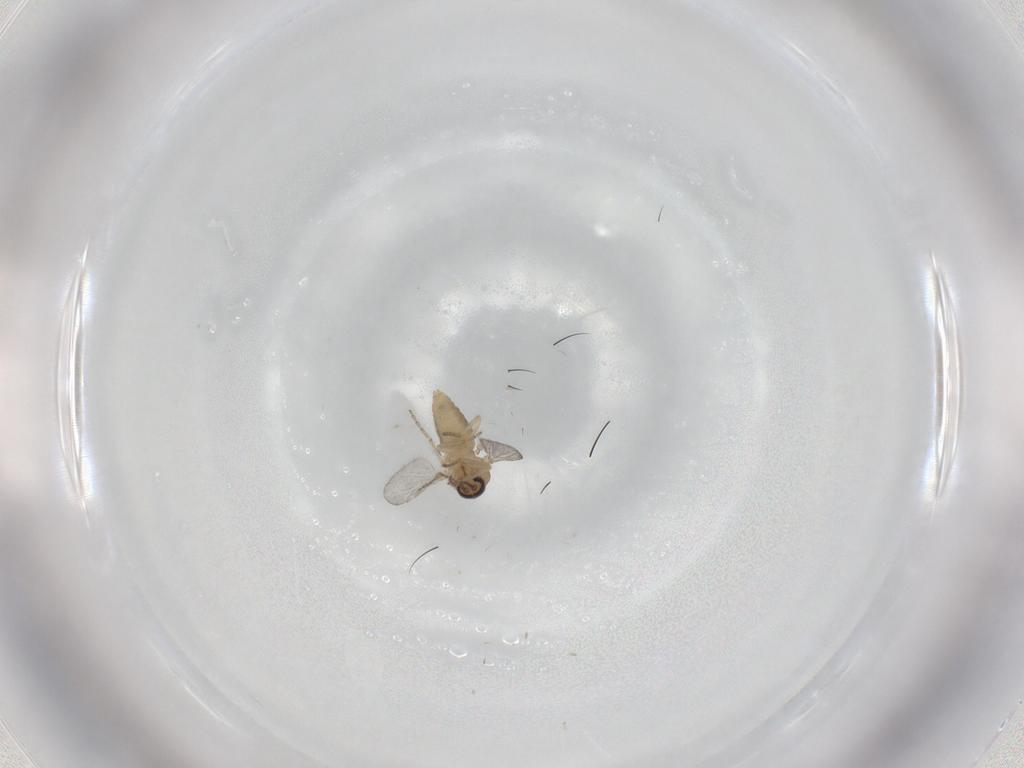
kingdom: Animalia
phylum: Arthropoda
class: Insecta
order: Diptera
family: Ceratopogonidae
